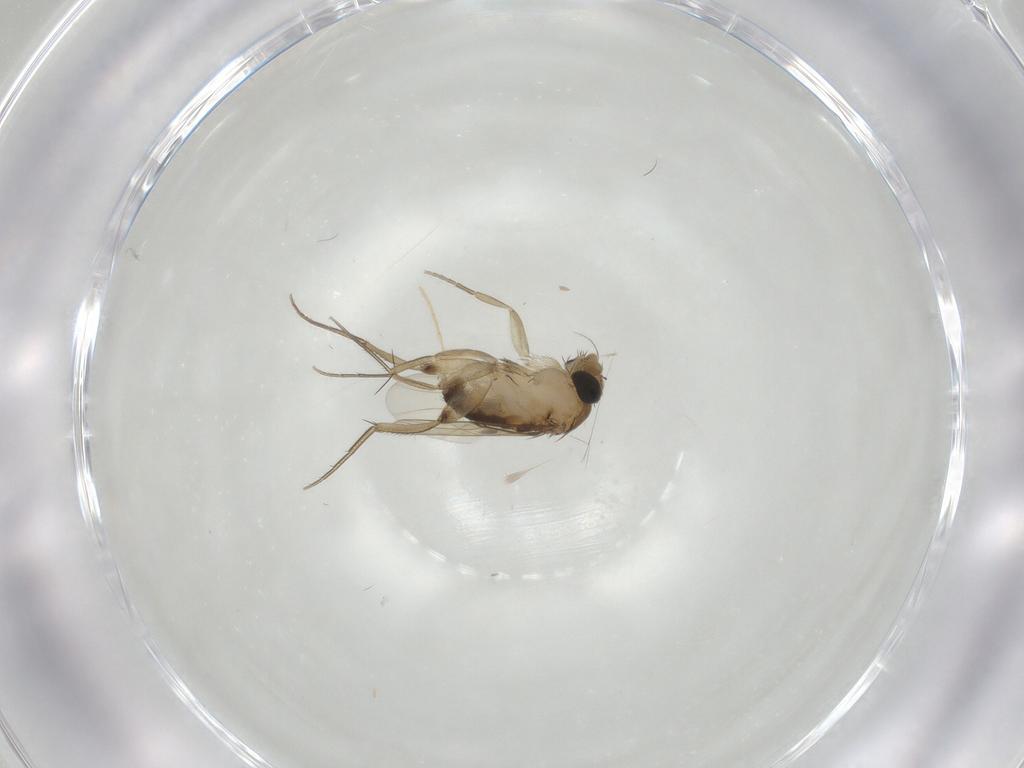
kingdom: Animalia
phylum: Arthropoda
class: Insecta
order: Diptera
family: Phoridae
